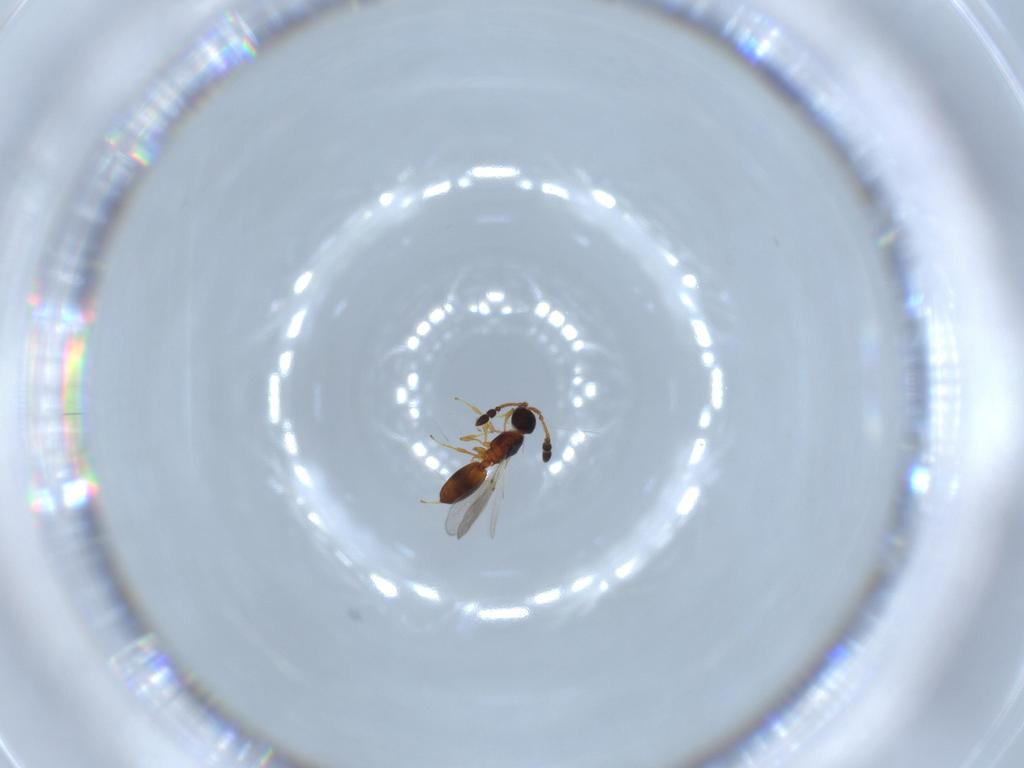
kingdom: Animalia
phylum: Arthropoda
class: Insecta
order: Hymenoptera
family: Diapriidae
